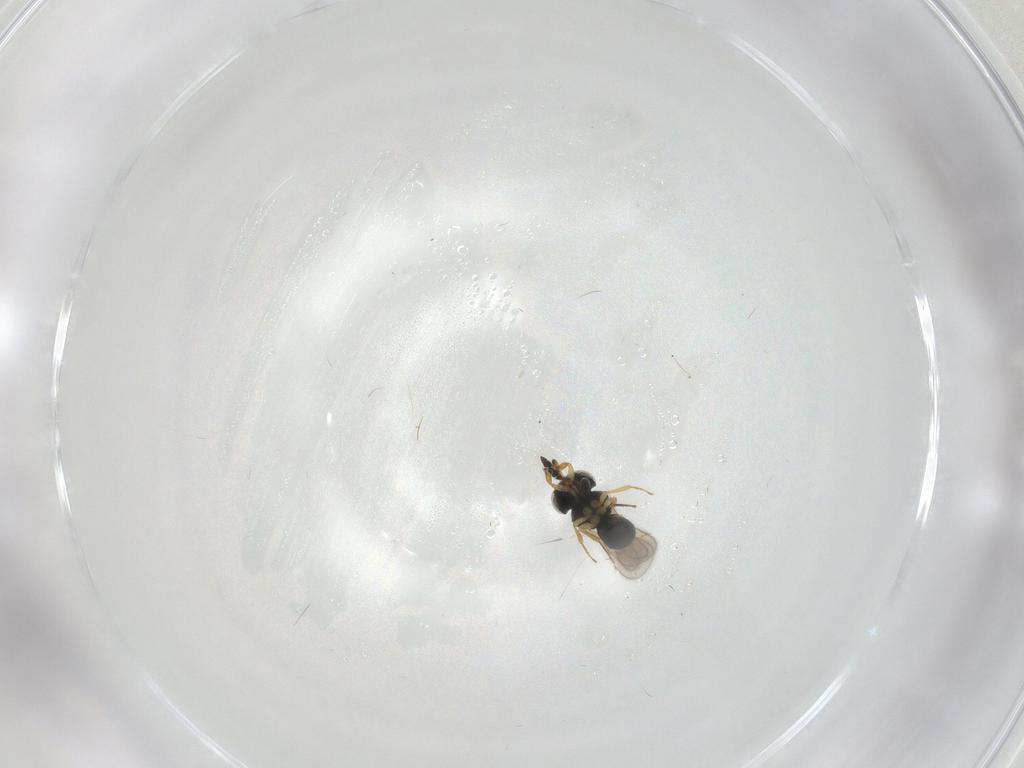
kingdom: Animalia
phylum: Arthropoda
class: Insecta
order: Hymenoptera
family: Scelionidae
